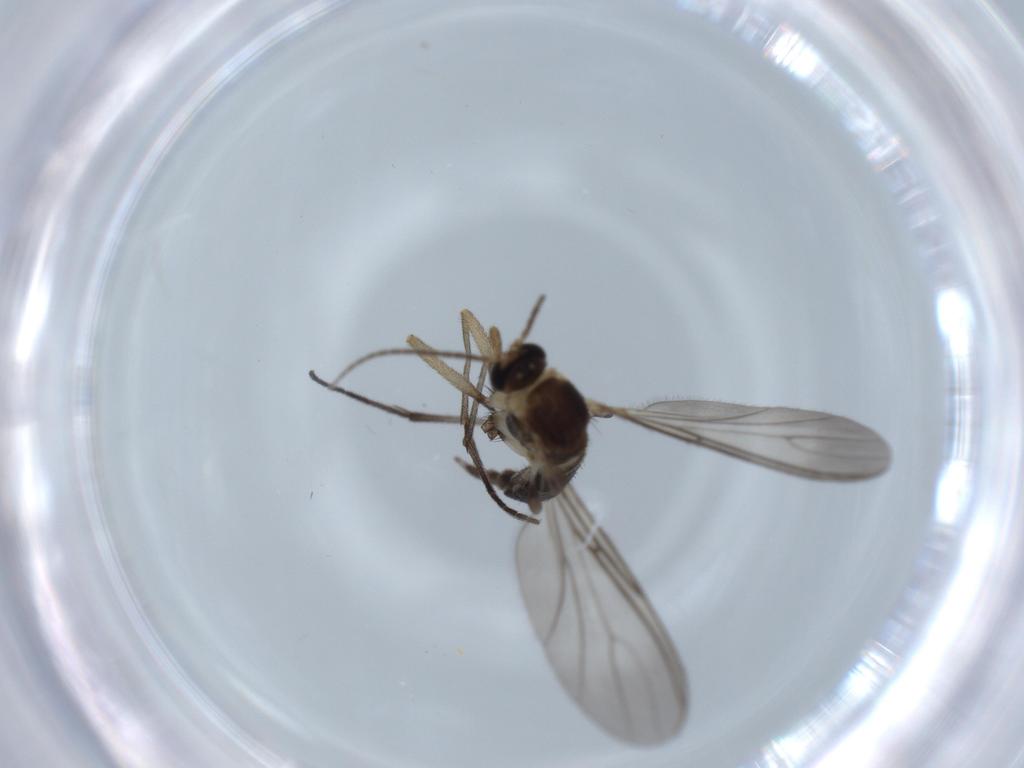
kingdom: Animalia
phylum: Arthropoda
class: Insecta
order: Diptera
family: Sciaridae
